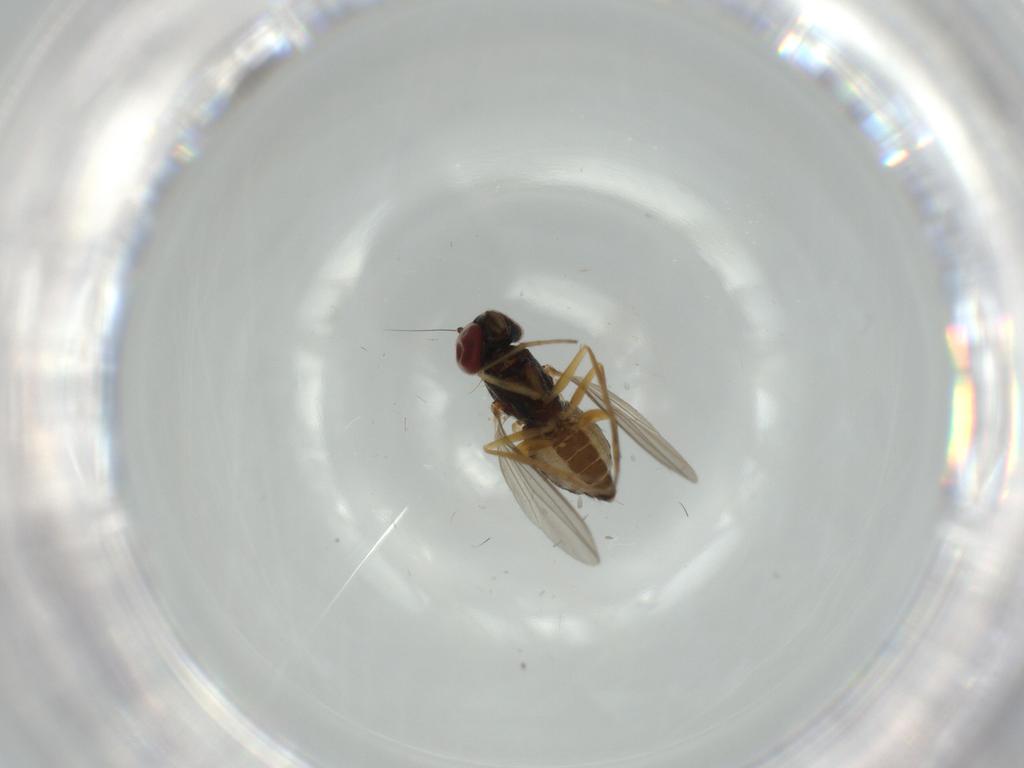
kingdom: Animalia
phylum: Arthropoda
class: Insecta
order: Diptera
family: Dolichopodidae
